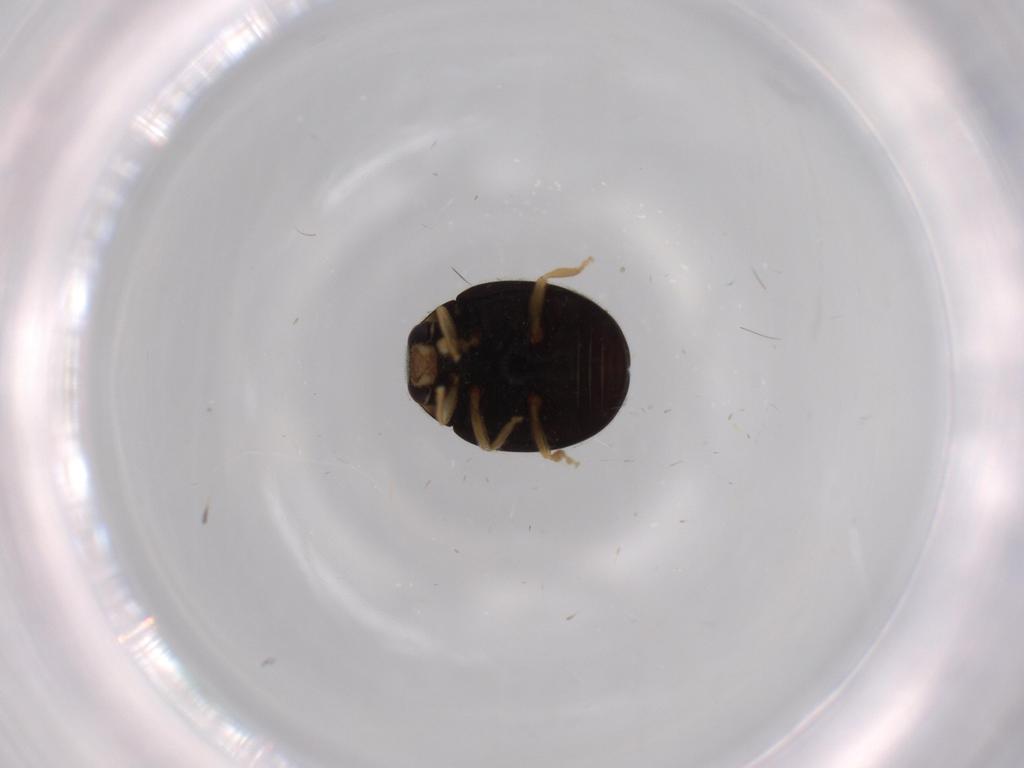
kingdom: Animalia
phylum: Arthropoda
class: Insecta
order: Coleoptera
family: Coccinellidae
